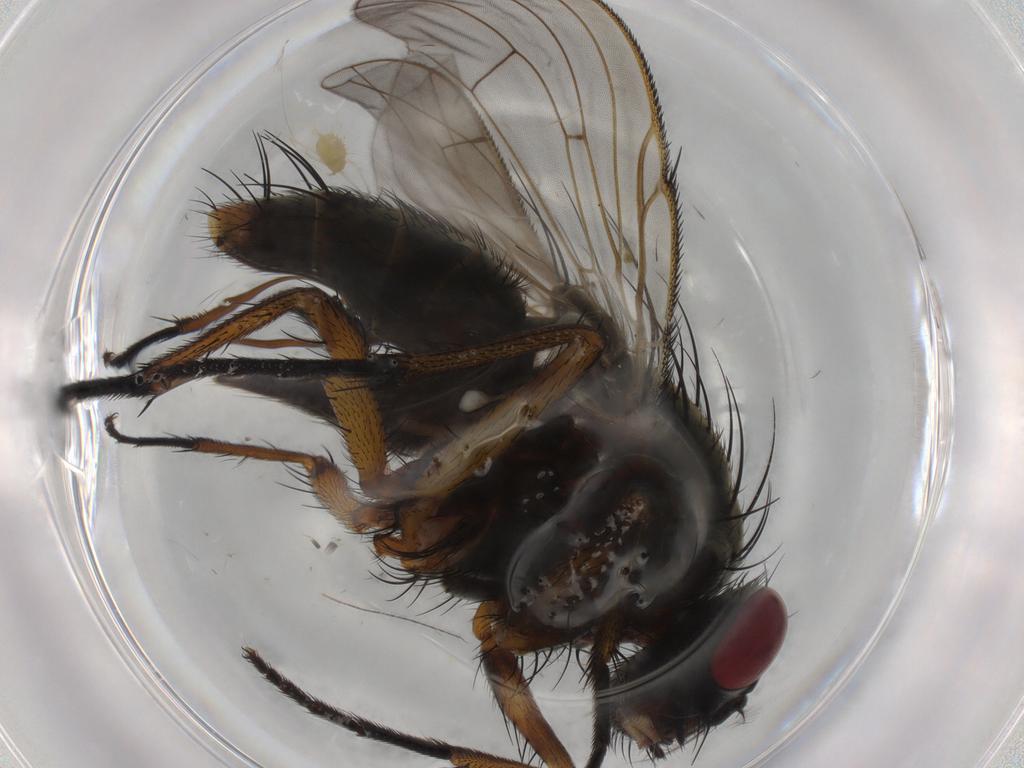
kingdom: Animalia
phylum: Arthropoda
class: Insecta
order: Diptera
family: Muscidae
